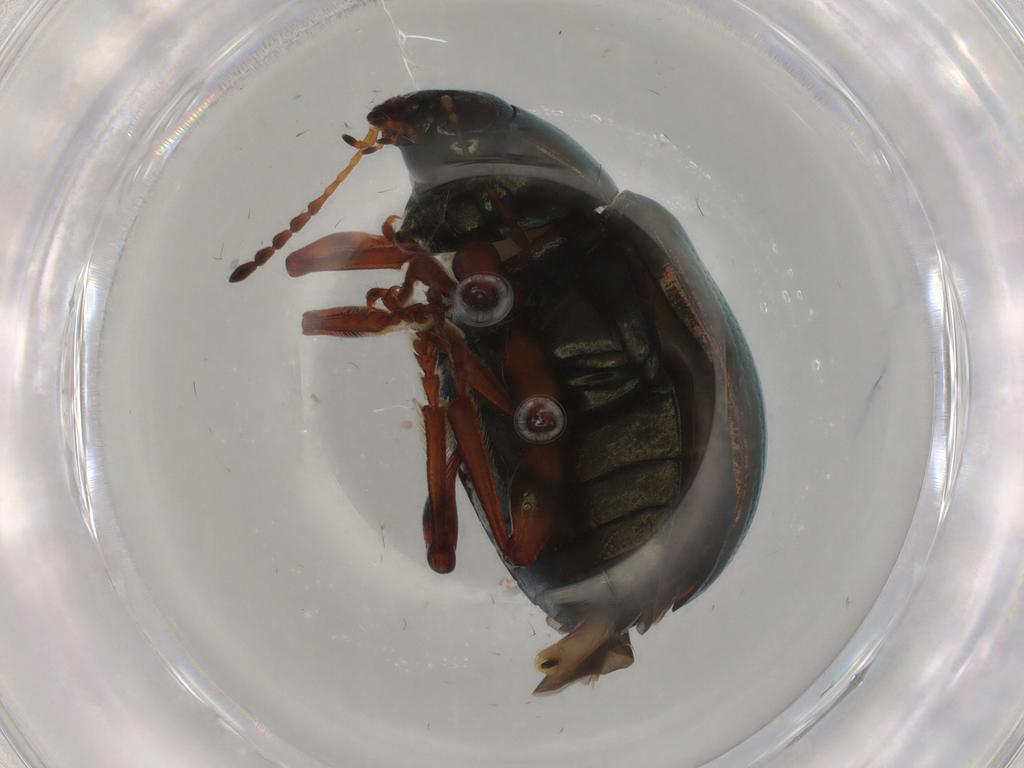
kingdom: Animalia
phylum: Arthropoda
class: Insecta
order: Coleoptera
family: Chrysomelidae
